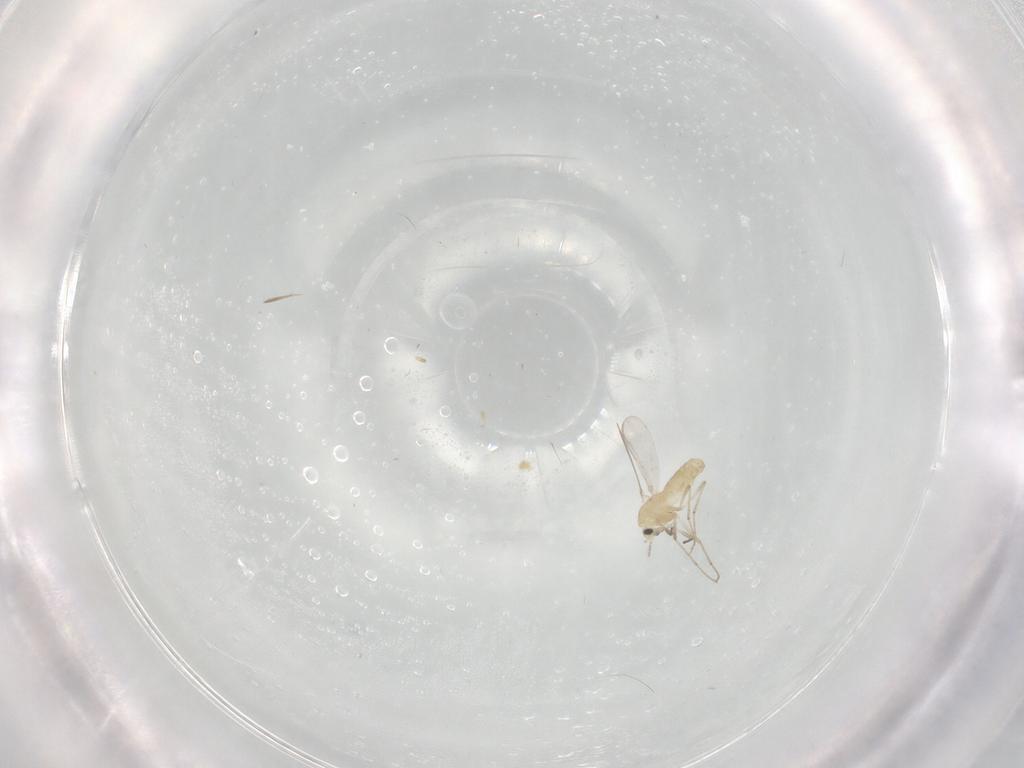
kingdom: Animalia
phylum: Arthropoda
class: Insecta
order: Diptera
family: Chironomidae
